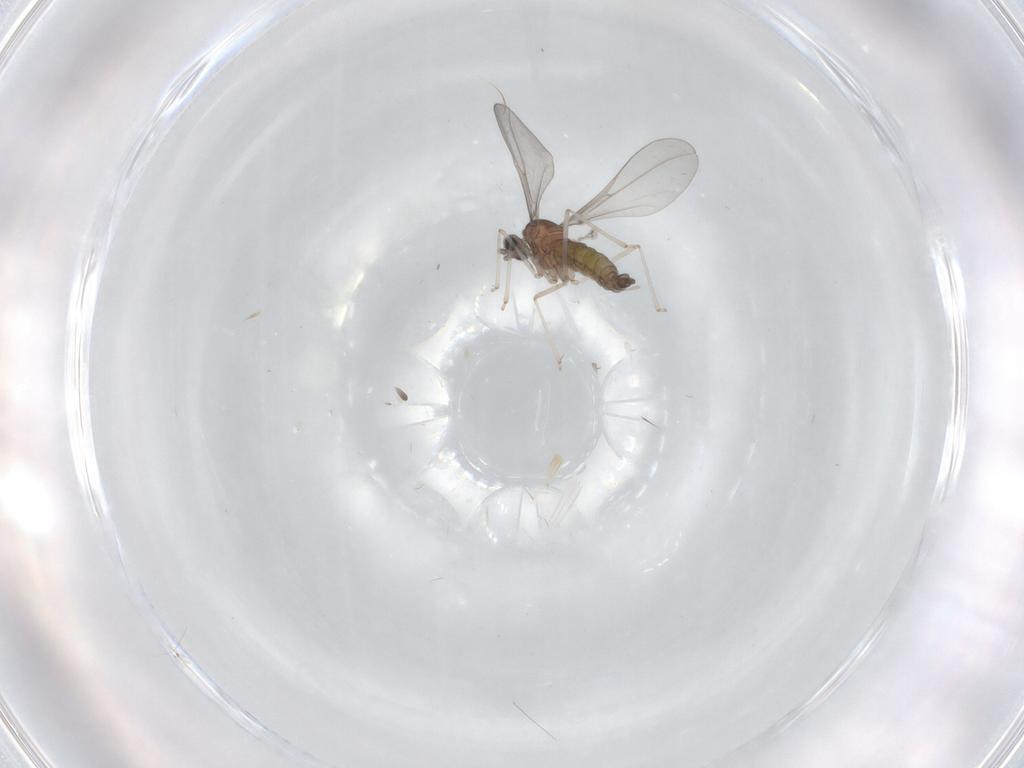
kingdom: Animalia
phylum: Arthropoda
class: Insecta
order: Diptera
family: Cecidomyiidae
